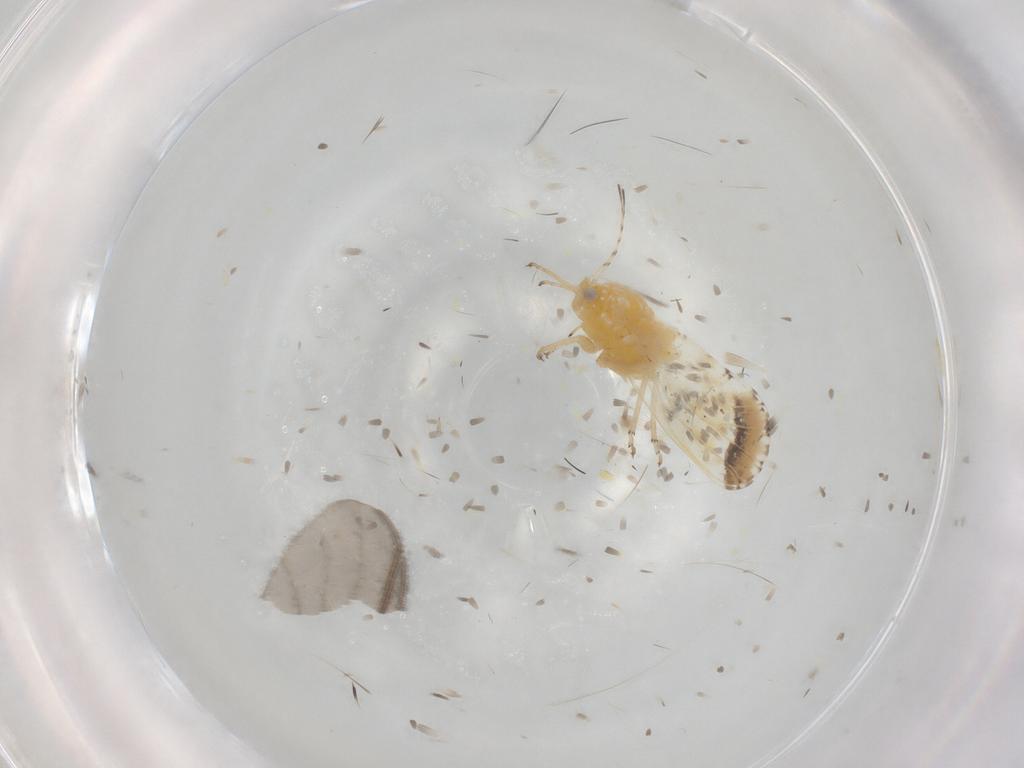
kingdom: Animalia
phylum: Arthropoda
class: Insecta
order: Hemiptera
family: Psyllidae
